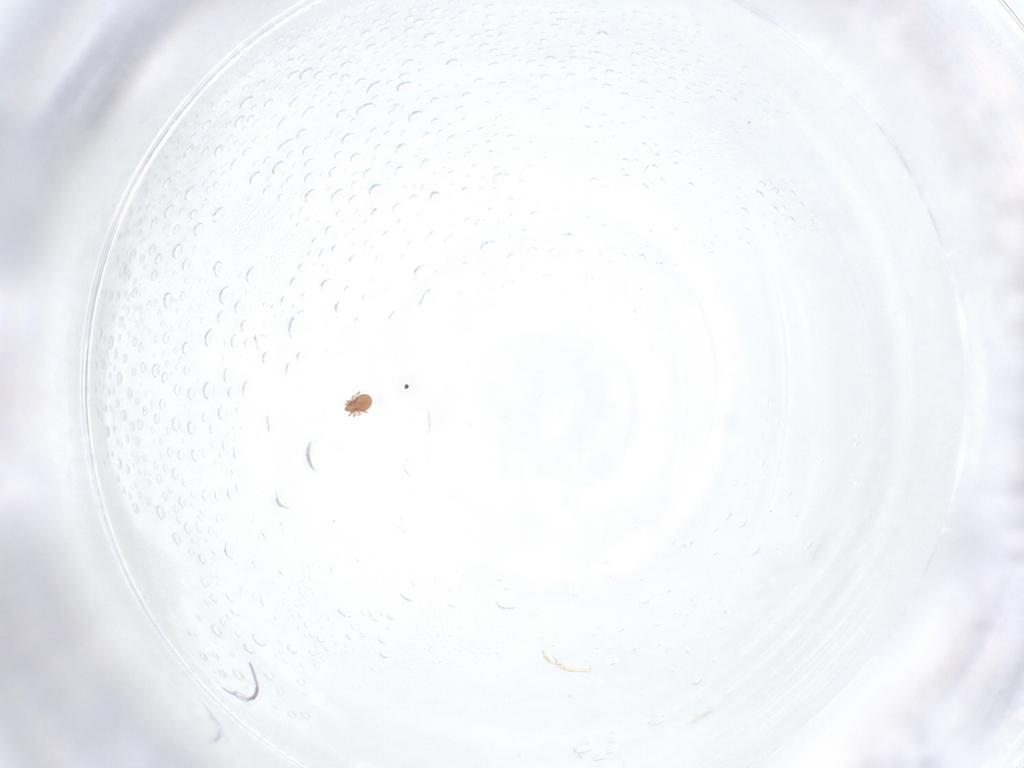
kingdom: Animalia
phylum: Arthropoda
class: Arachnida
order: Sarcoptiformes
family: Oppiidae
